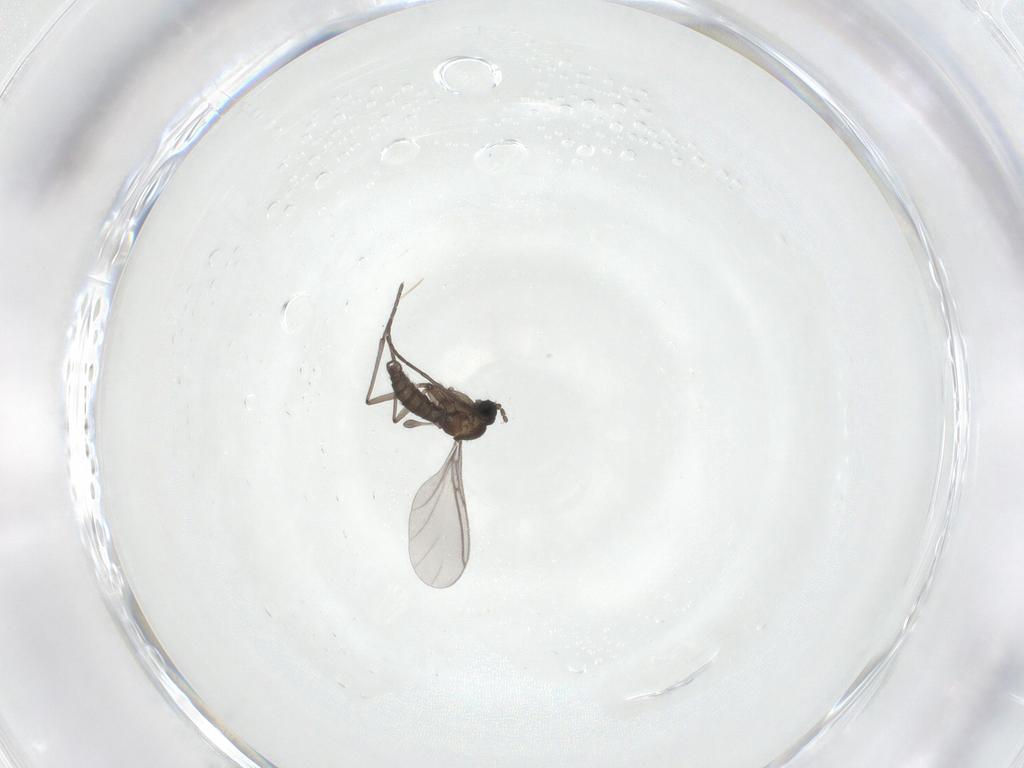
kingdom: Animalia
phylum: Arthropoda
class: Insecta
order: Diptera
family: Sciaridae
